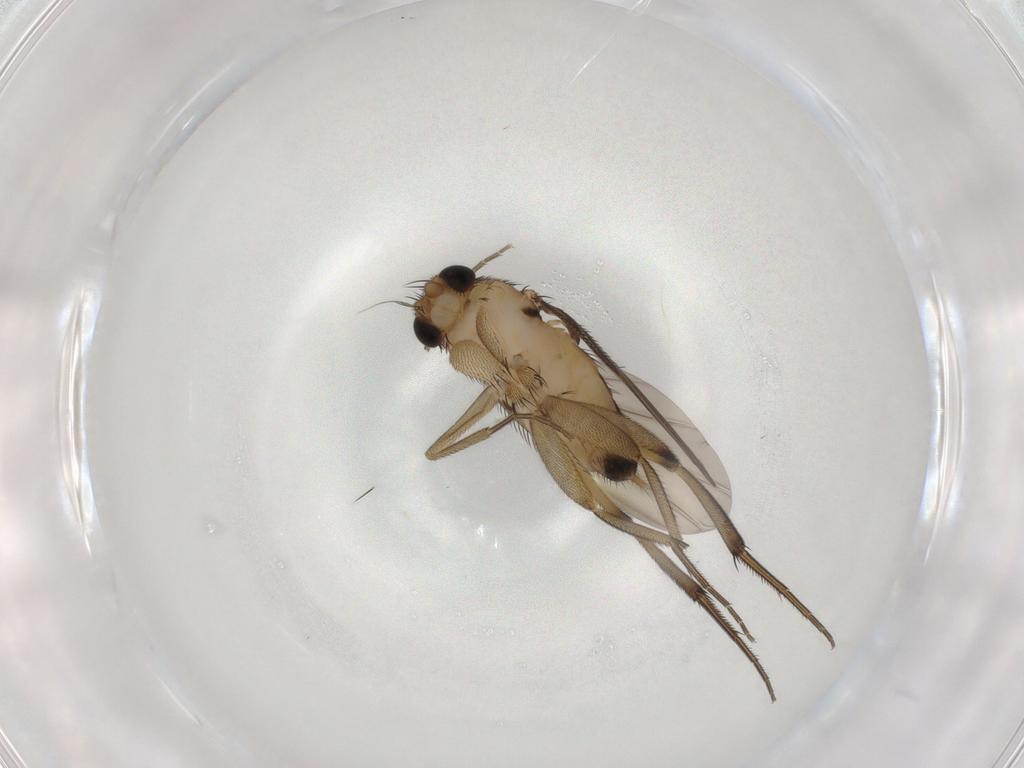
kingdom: Animalia
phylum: Arthropoda
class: Insecta
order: Diptera
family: Phoridae
